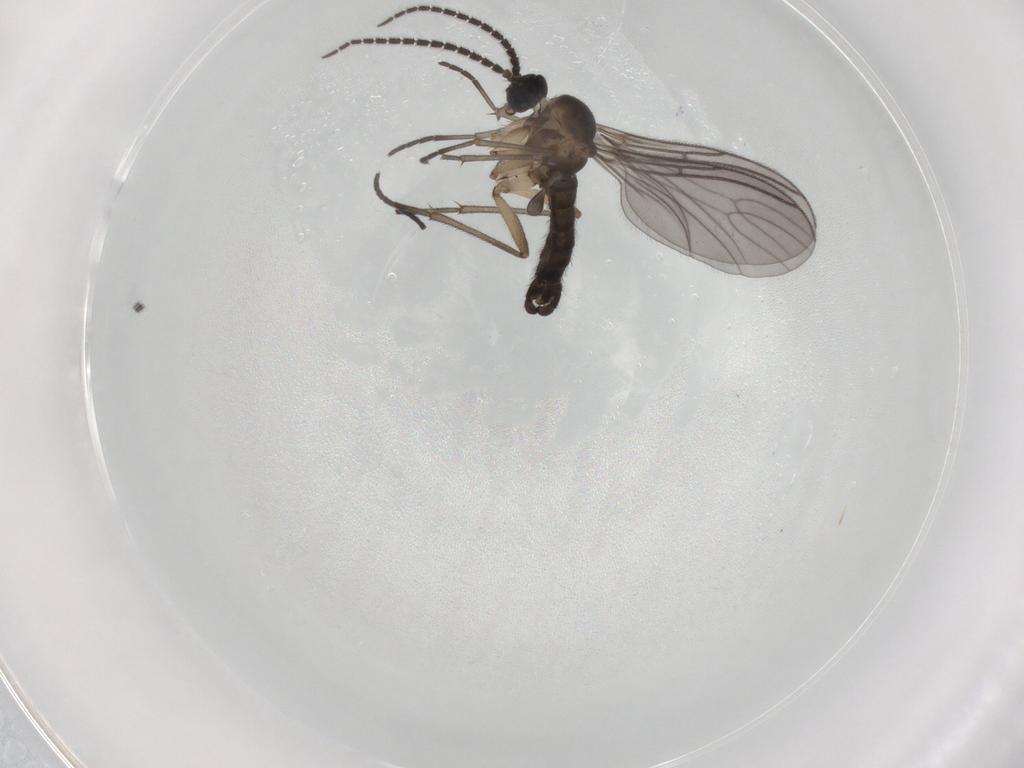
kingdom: Animalia
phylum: Arthropoda
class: Insecta
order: Diptera
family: Sciaridae
